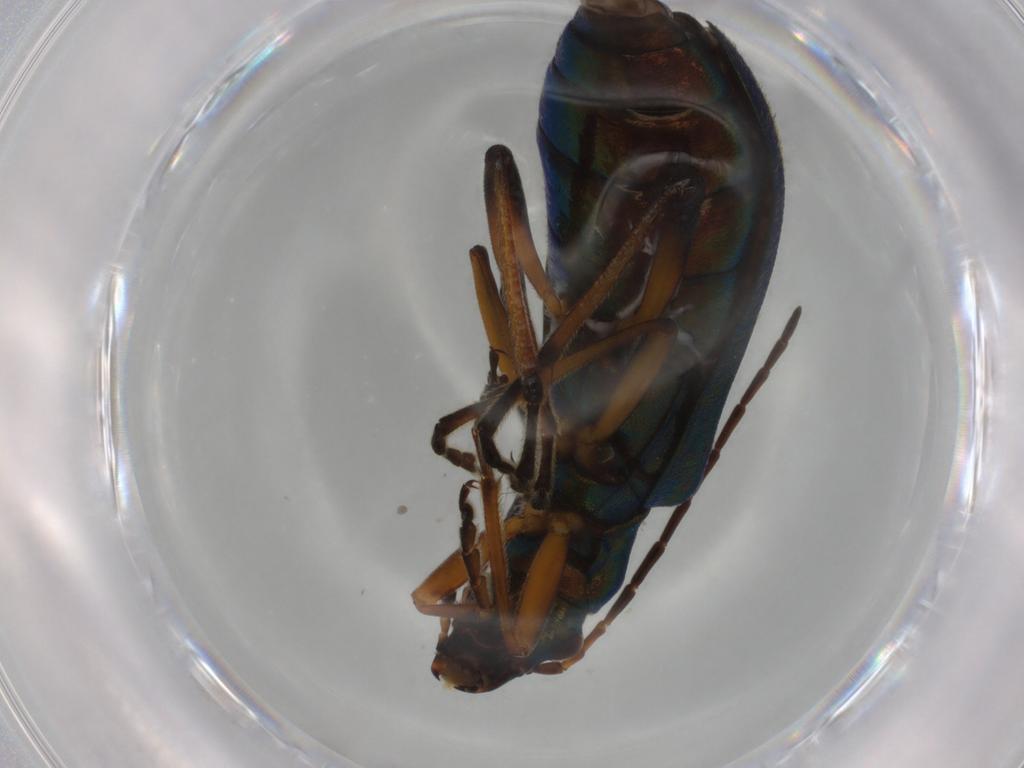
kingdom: Animalia
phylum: Arthropoda
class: Insecta
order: Coleoptera
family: Oedemeridae
